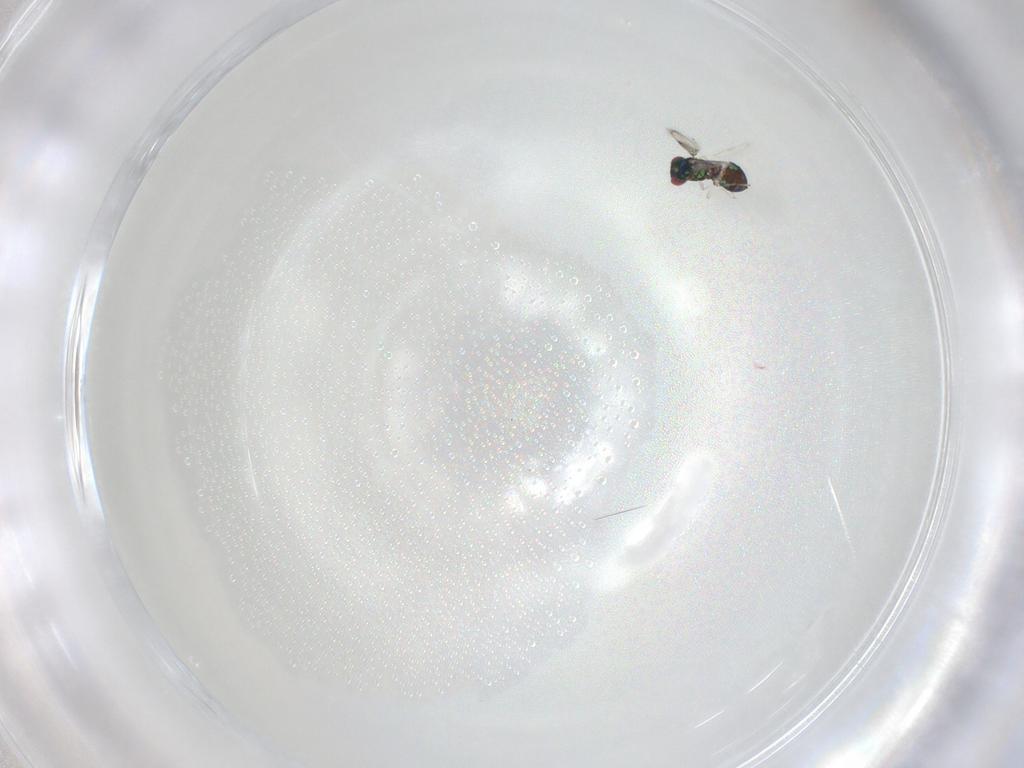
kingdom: Animalia
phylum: Arthropoda
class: Insecta
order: Hymenoptera
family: Eulophidae
